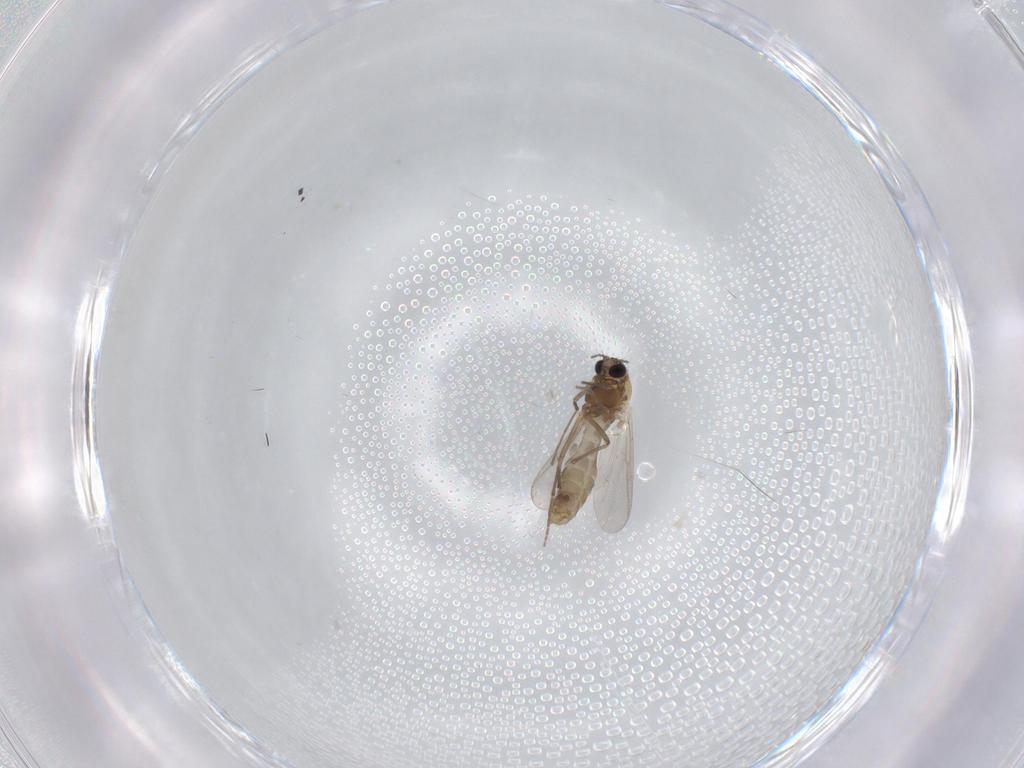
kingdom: Animalia
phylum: Arthropoda
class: Insecta
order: Diptera
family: Chironomidae
